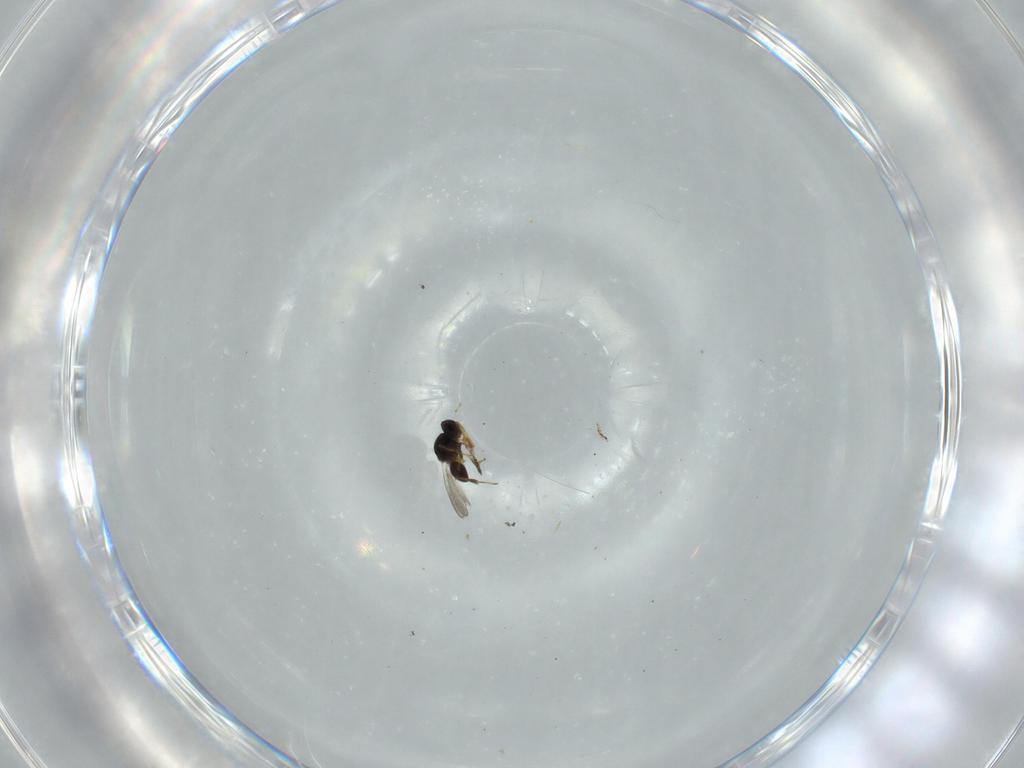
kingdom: Animalia
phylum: Arthropoda
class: Insecta
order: Hymenoptera
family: Platygastridae
